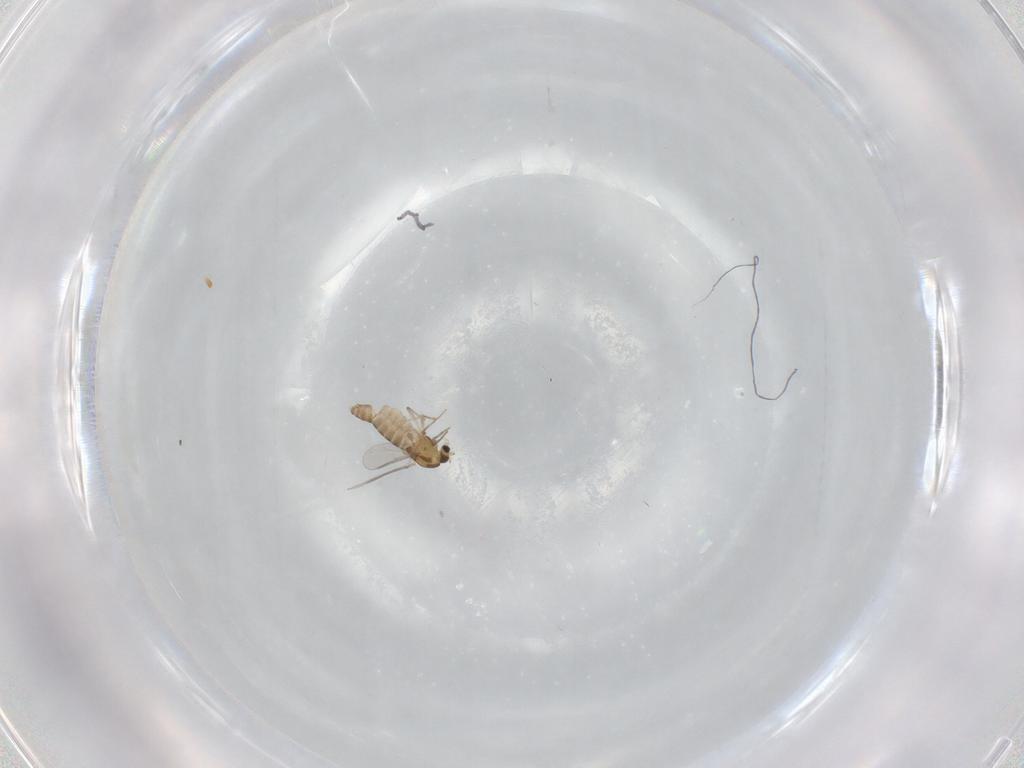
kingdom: Animalia
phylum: Arthropoda
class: Insecta
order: Diptera
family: Chironomidae
